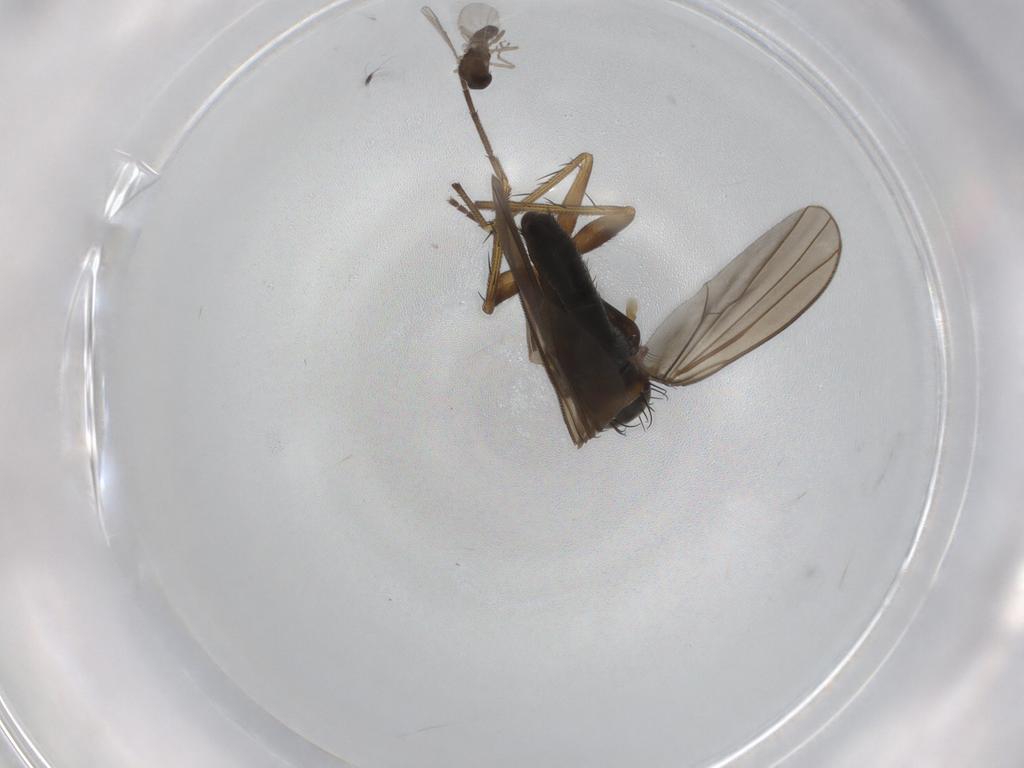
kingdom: Animalia
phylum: Arthropoda
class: Insecta
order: Diptera
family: Dolichopodidae
